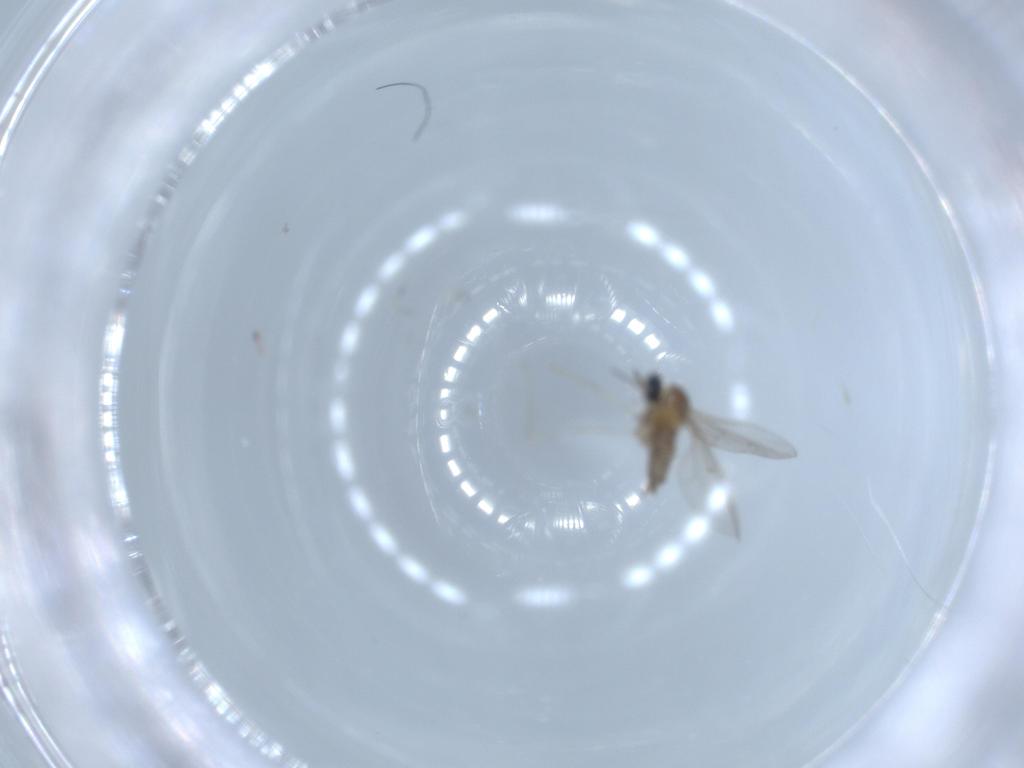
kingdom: Animalia
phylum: Arthropoda
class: Insecta
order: Diptera
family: Cecidomyiidae
